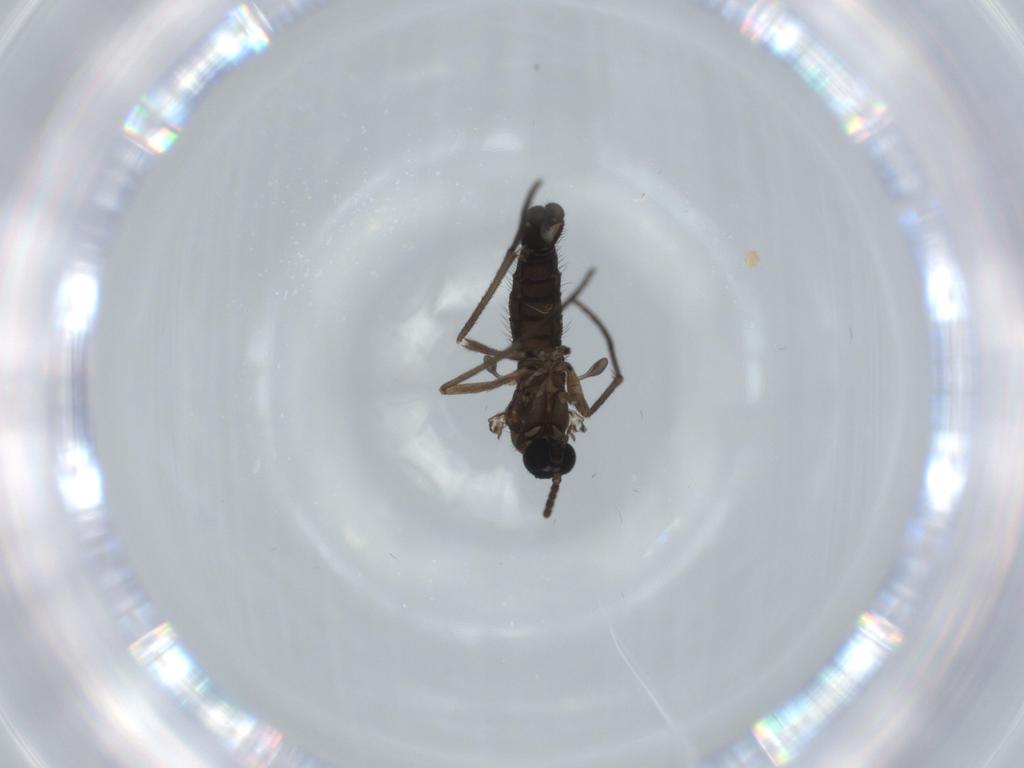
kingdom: Animalia
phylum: Arthropoda
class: Insecta
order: Diptera
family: Sciaridae
